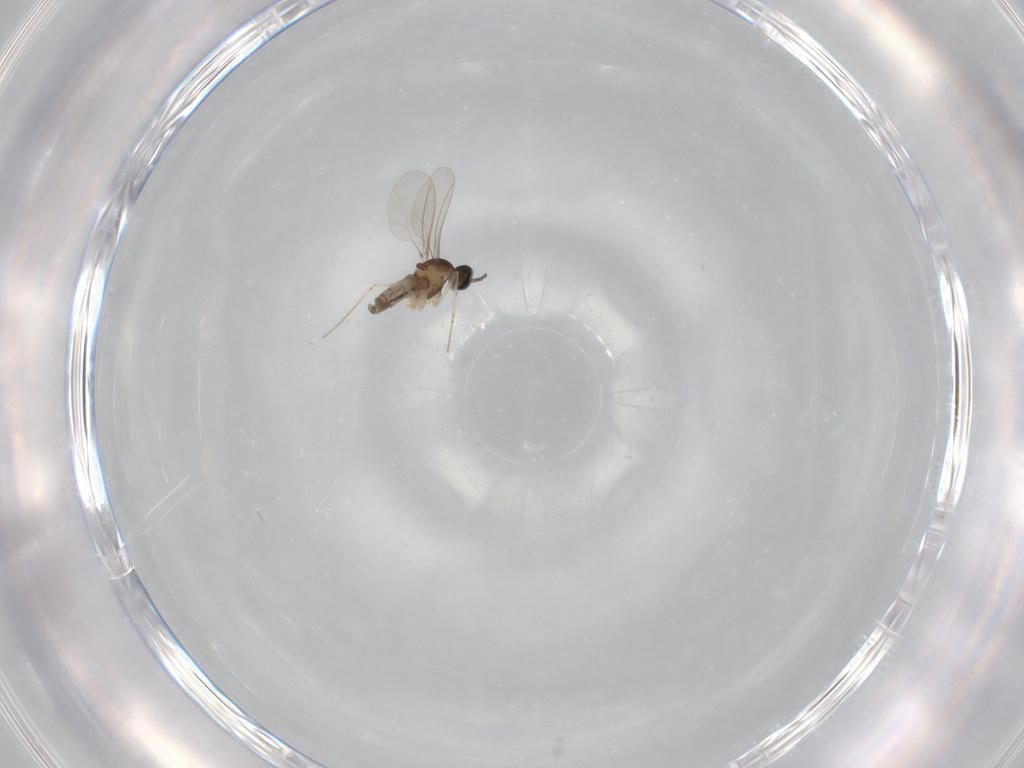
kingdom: Animalia
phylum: Arthropoda
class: Insecta
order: Diptera
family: Cecidomyiidae
